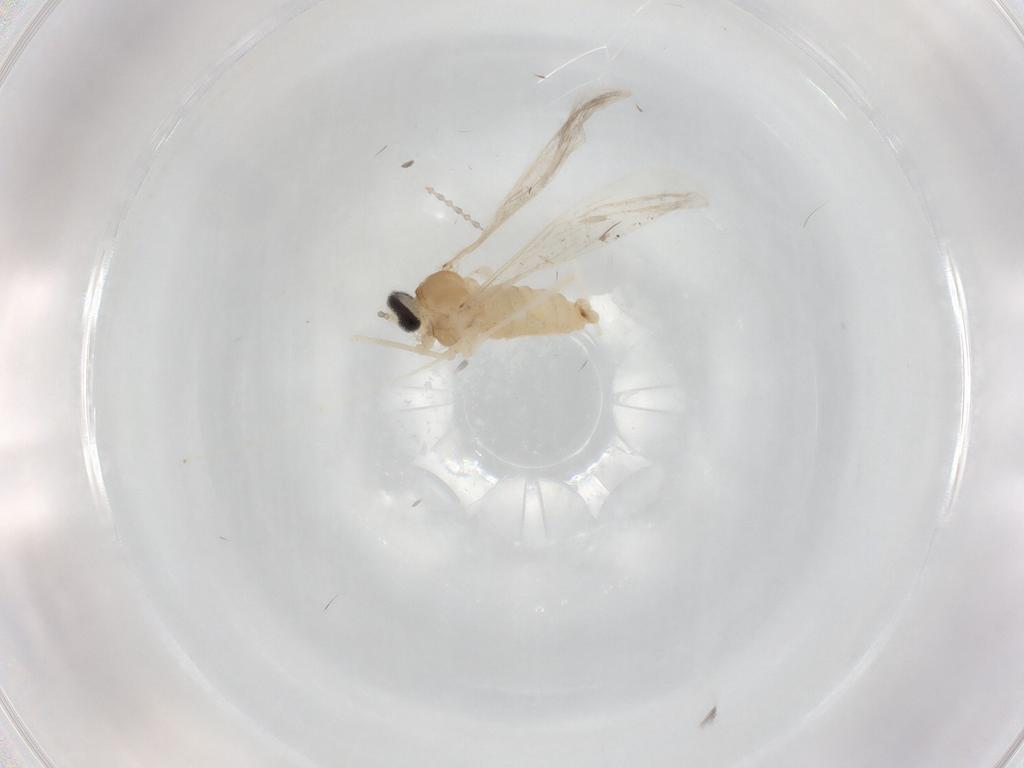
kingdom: Animalia
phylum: Arthropoda
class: Insecta
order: Diptera
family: Cecidomyiidae
